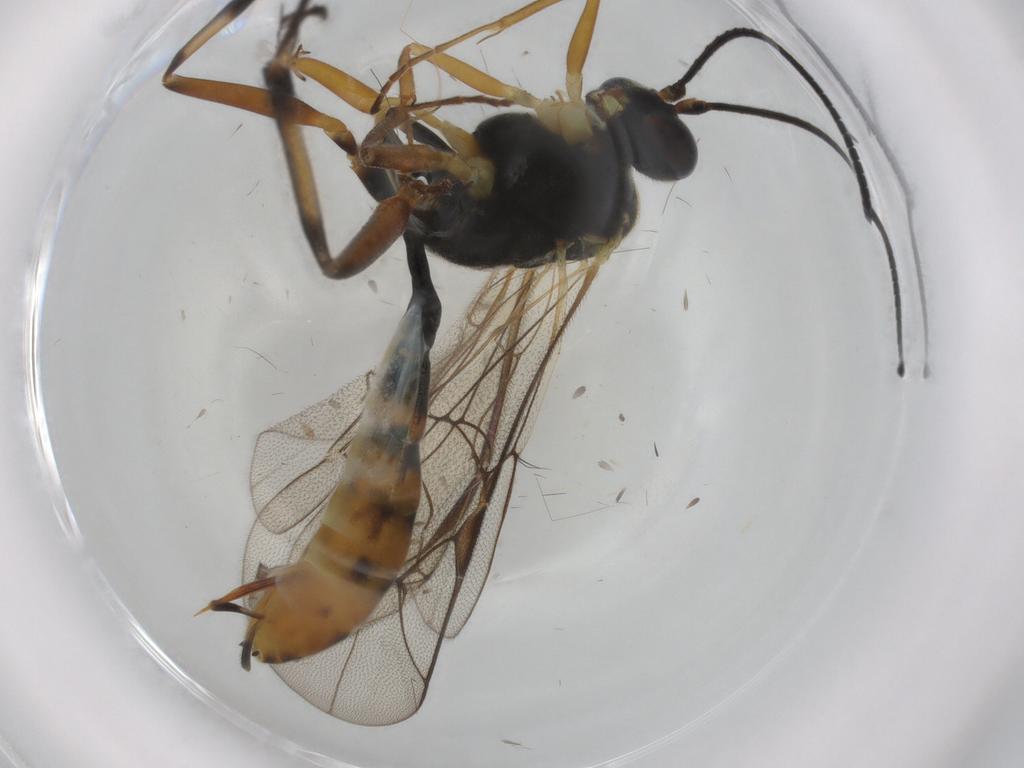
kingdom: Animalia
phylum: Arthropoda
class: Insecta
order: Hymenoptera
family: Ichneumonidae
